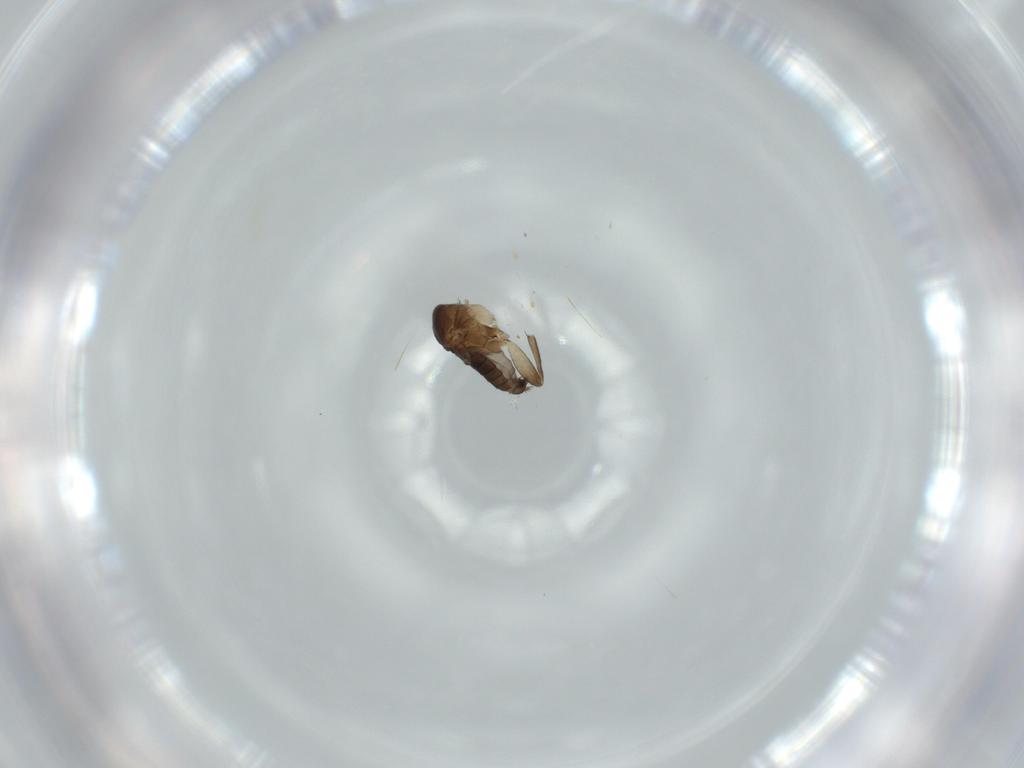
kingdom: Animalia
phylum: Arthropoda
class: Insecta
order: Diptera
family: Phoridae
